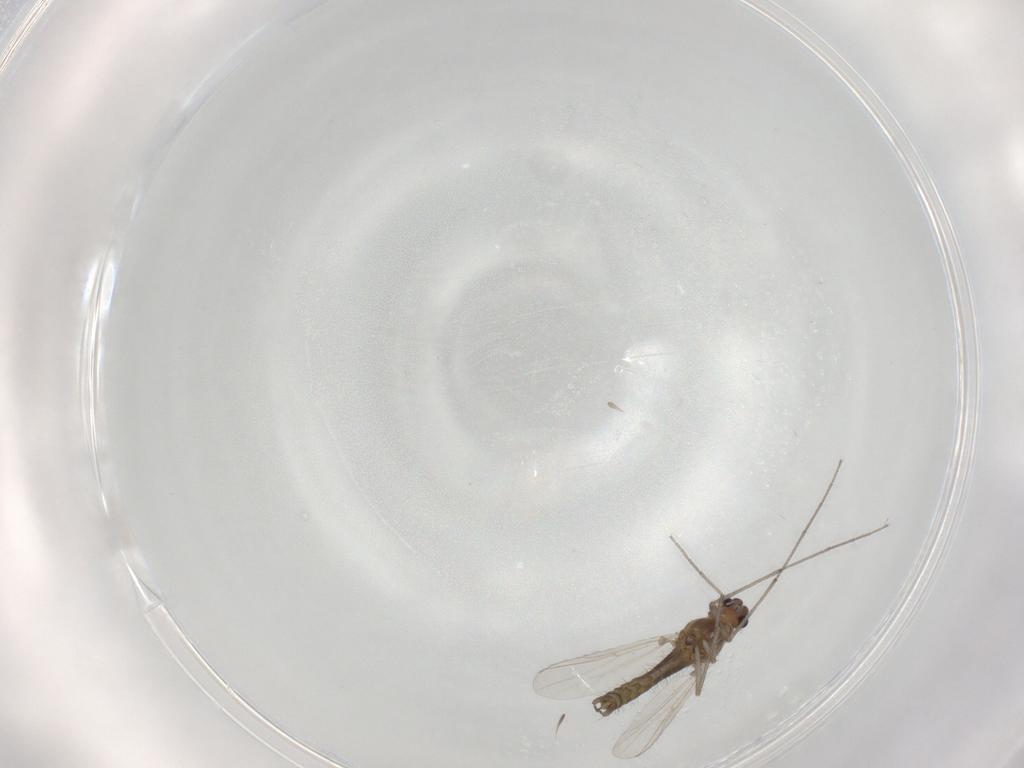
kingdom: Animalia
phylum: Arthropoda
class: Insecta
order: Diptera
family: Chironomidae
